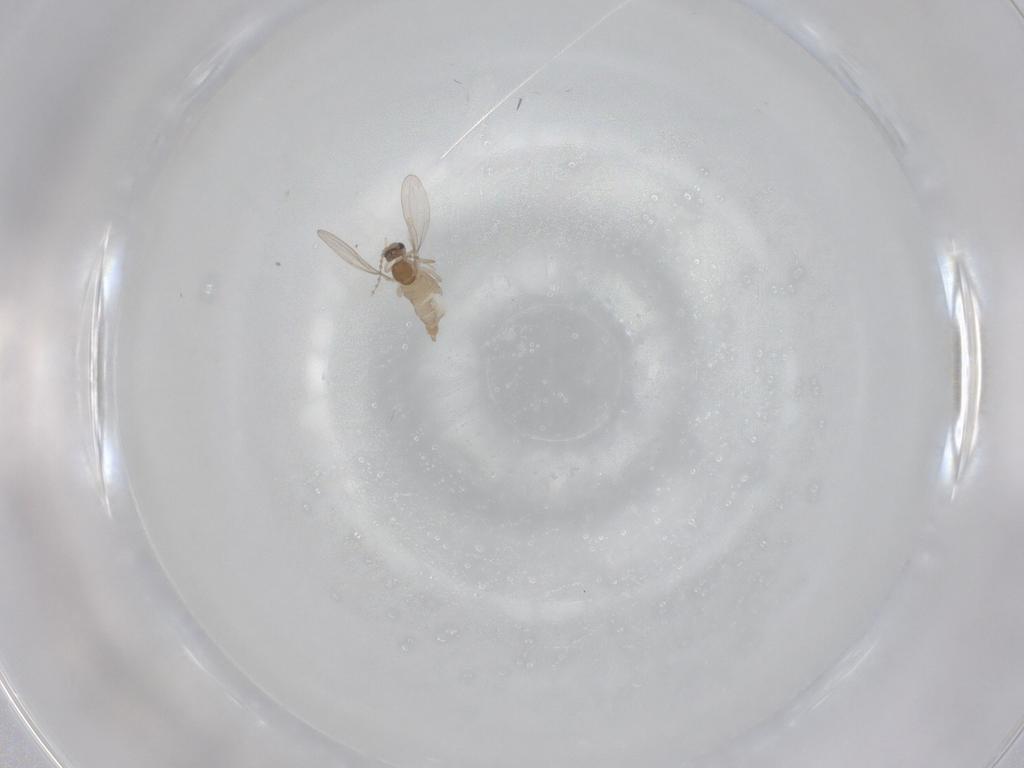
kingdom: Animalia
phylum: Arthropoda
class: Insecta
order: Diptera
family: Cecidomyiidae
